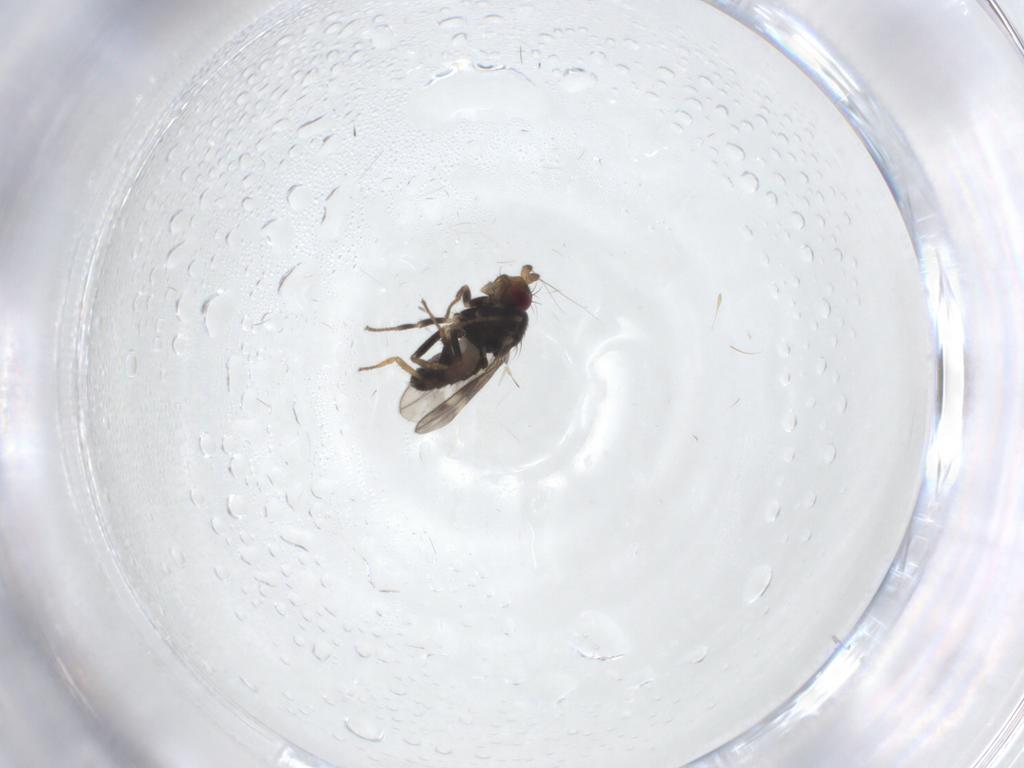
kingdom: Animalia
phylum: Arthropoda
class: Insecta
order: Diptera
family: Sphaeroceridae
